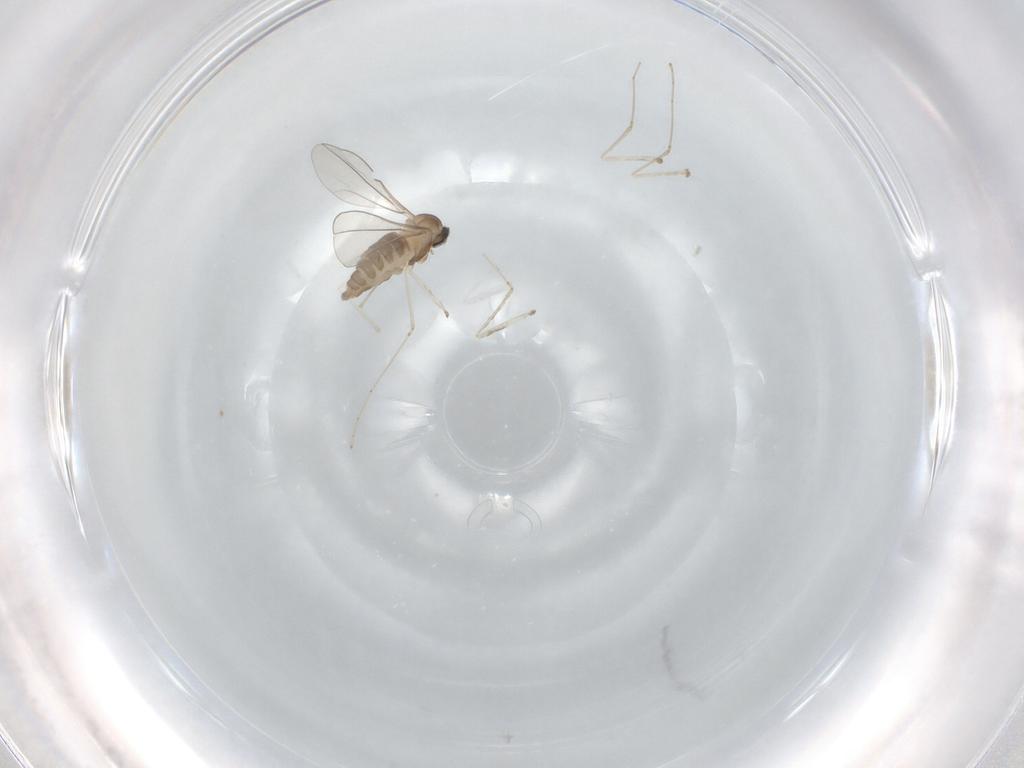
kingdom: Animalia
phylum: Arthropoda
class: Insecta
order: Diptera
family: Cecidomyiidae
